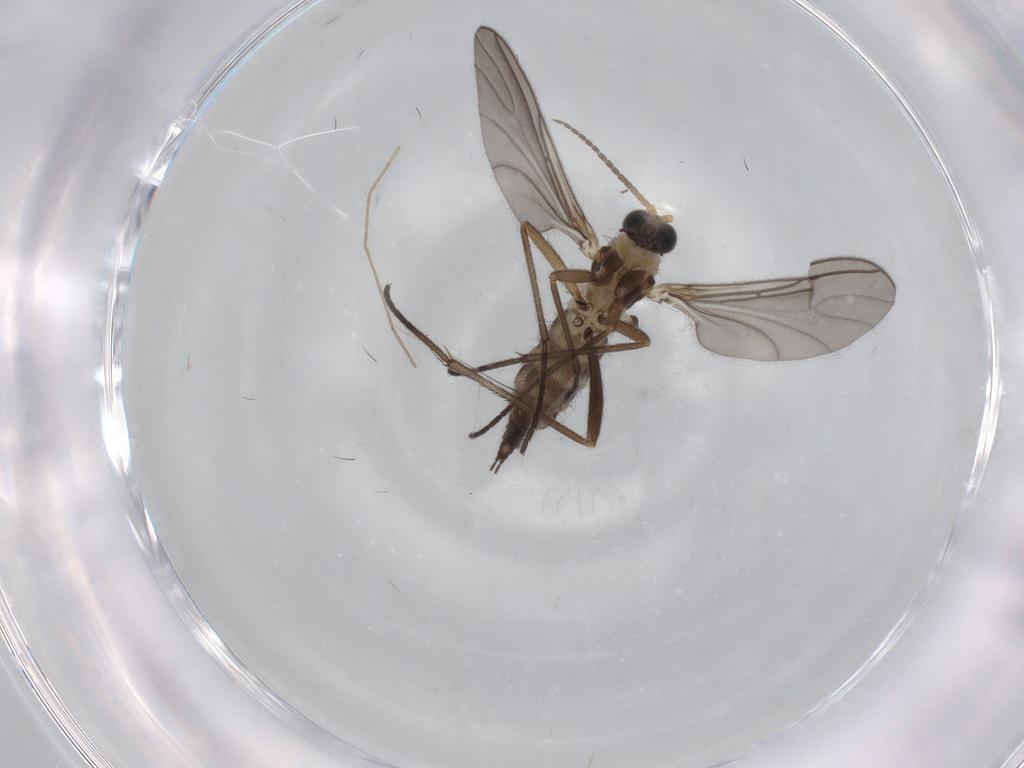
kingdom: Animalia
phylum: Arthropoda
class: Insecta
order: Diptera
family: Sciaridae
